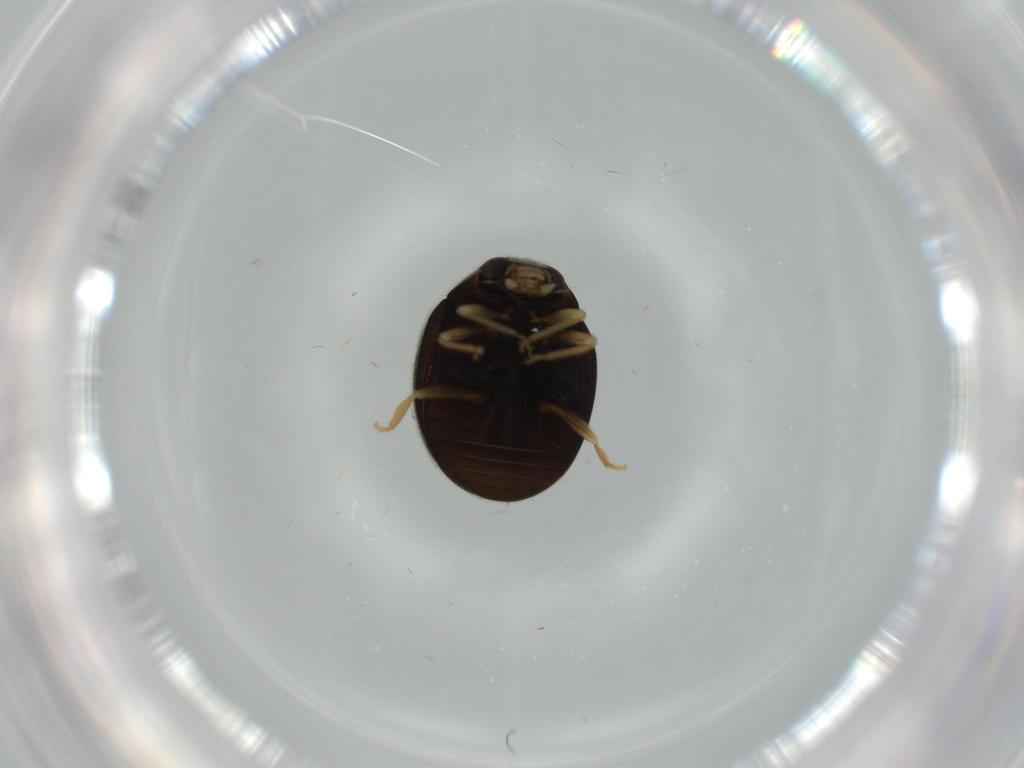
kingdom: Animalia
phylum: Arthropoda
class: Insecta
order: Coleoptera
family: Coccinellidae
